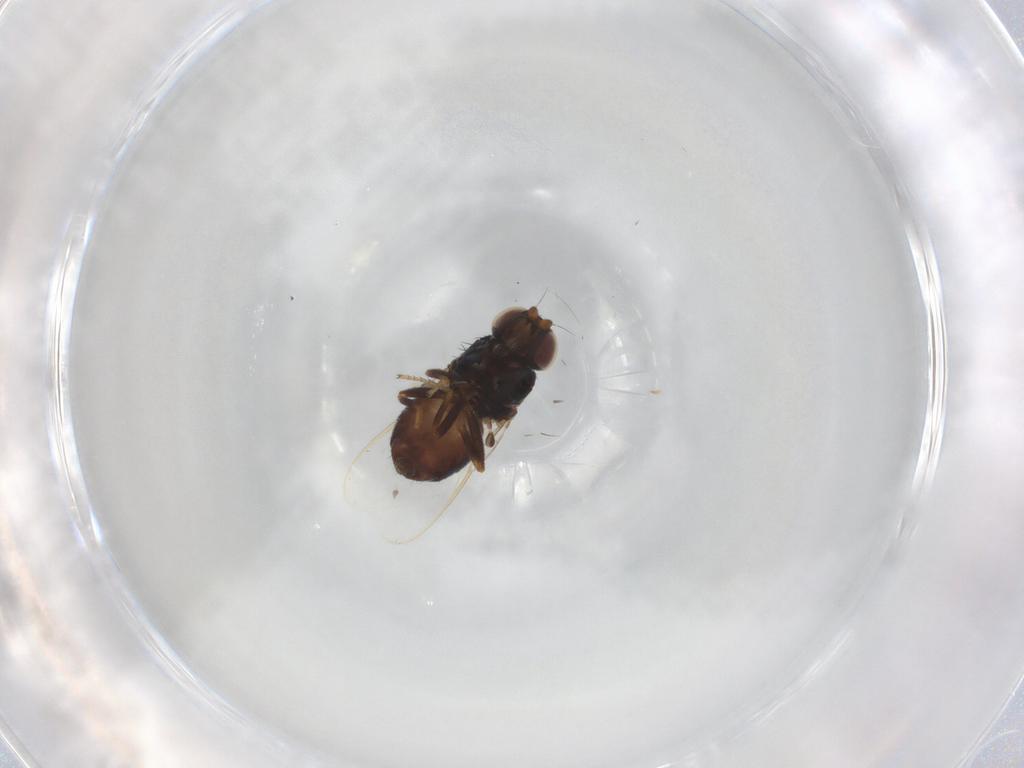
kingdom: Animalia
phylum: Arthropoda
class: Insecta
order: Diptera
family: Chloropidae
